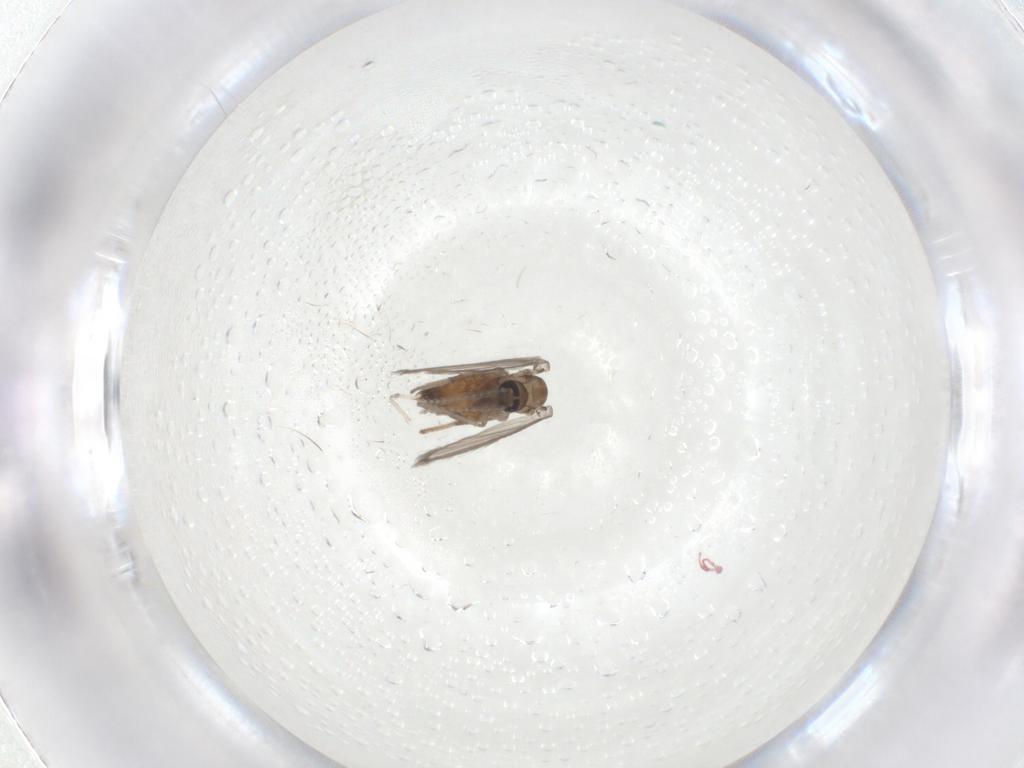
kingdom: Animalia
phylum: Arthropoda
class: Insecta
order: Diptera
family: Psychodidae
